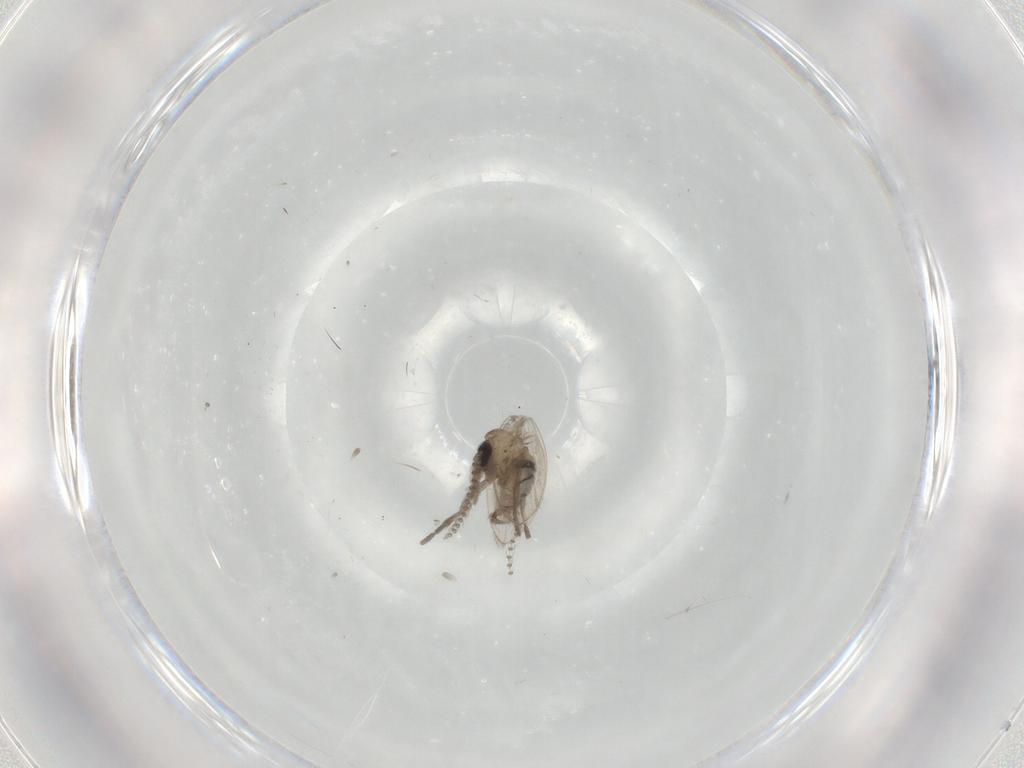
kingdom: Animalia
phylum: Arthropoda
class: Insecta
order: Diptera
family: Psychodidae
